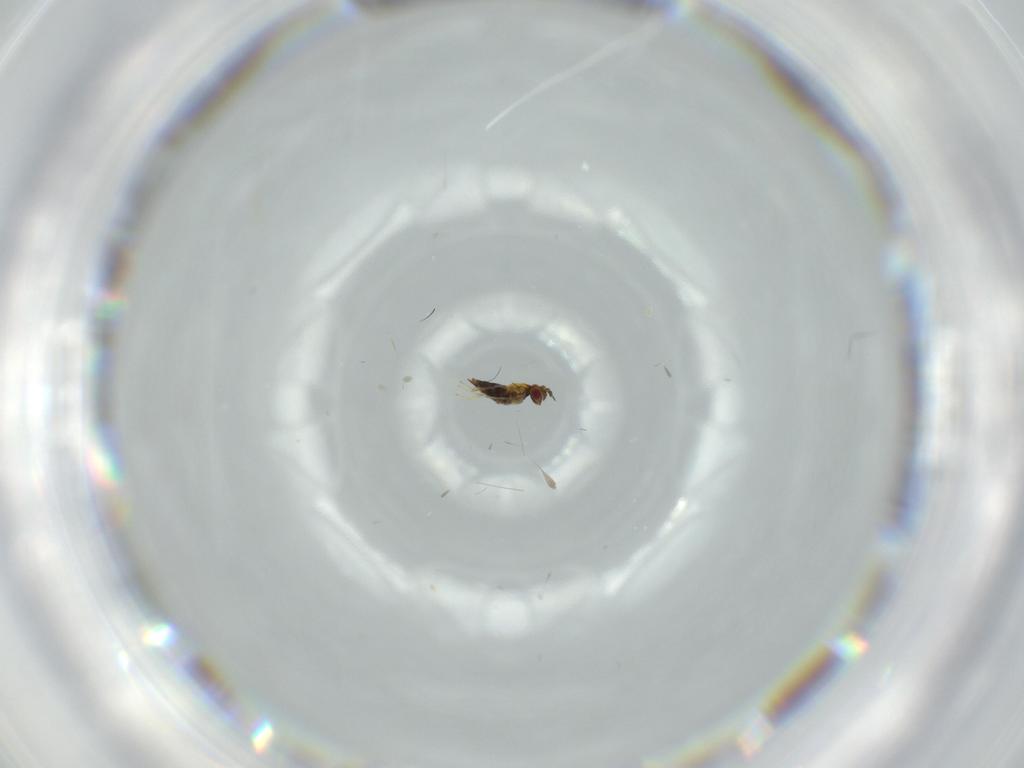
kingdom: Animalia
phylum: Arthropoda
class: Insecta
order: Hymenoptera
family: Trichogrammatidae
